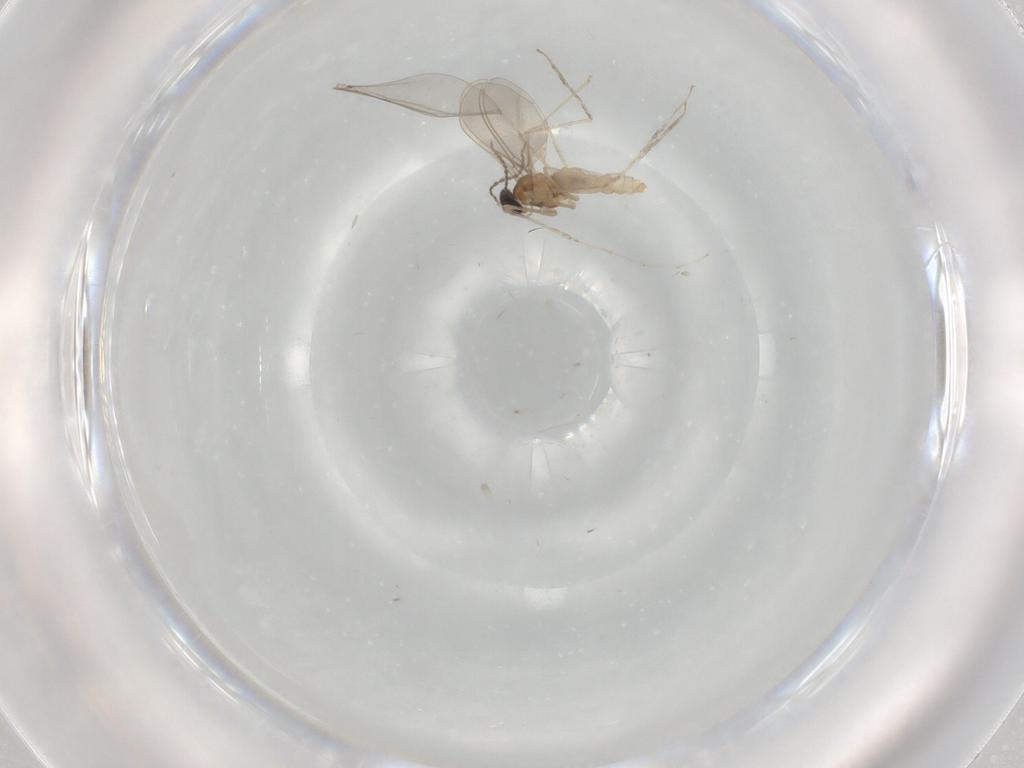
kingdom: Animalia
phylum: Arthropoda
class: Insecta
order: Diptera
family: Cecidomyiidae
